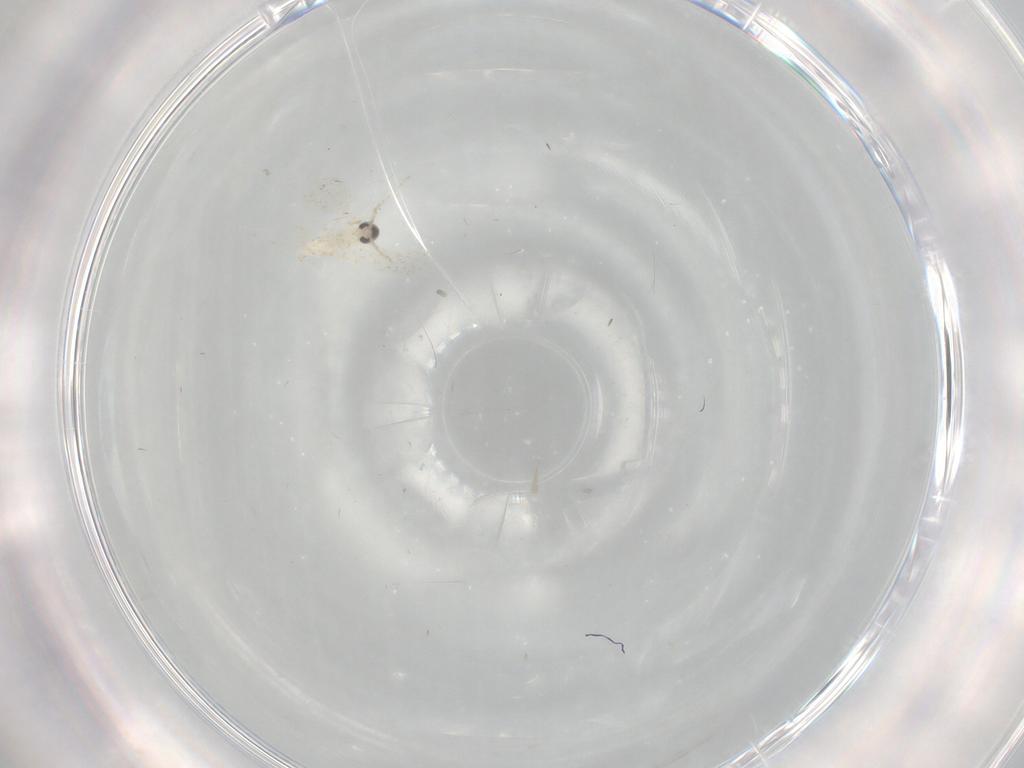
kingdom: Animalia
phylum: Arthropoda
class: Insecta
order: Diptera
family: Cecidomyiidae
